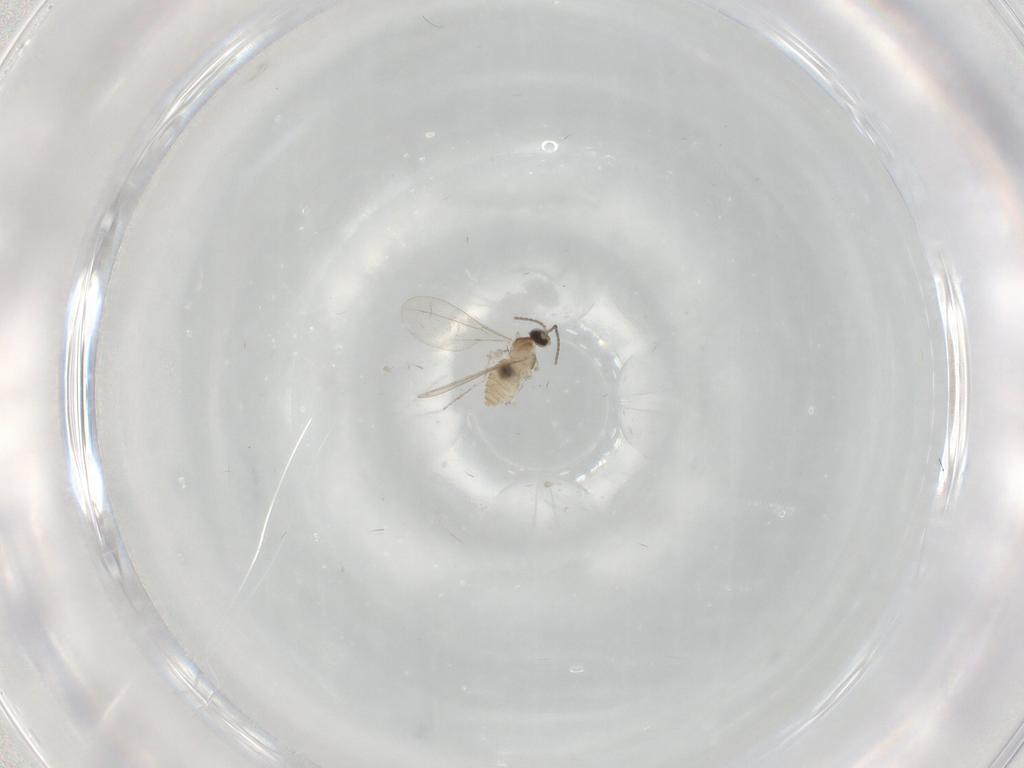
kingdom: Animalia
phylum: Arthropoda
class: Insecta
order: Diptera
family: Cecidomyiidae
